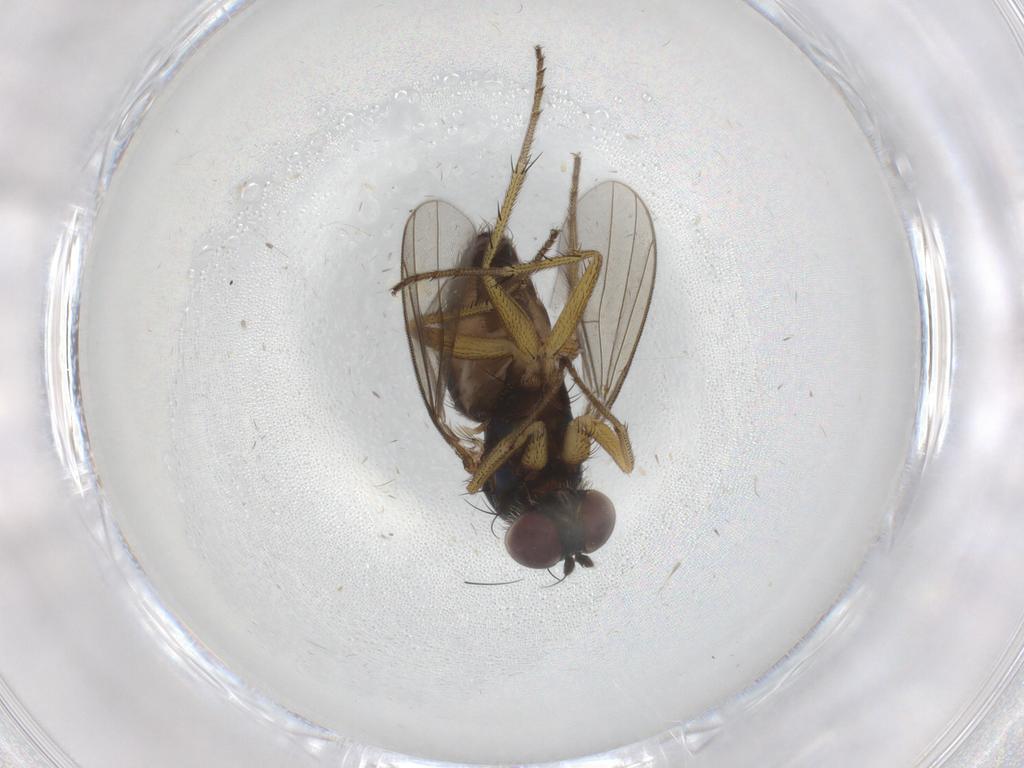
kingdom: Animalia
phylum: Arthropoda
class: Insecta
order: Diptera
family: Dolichopodidae
